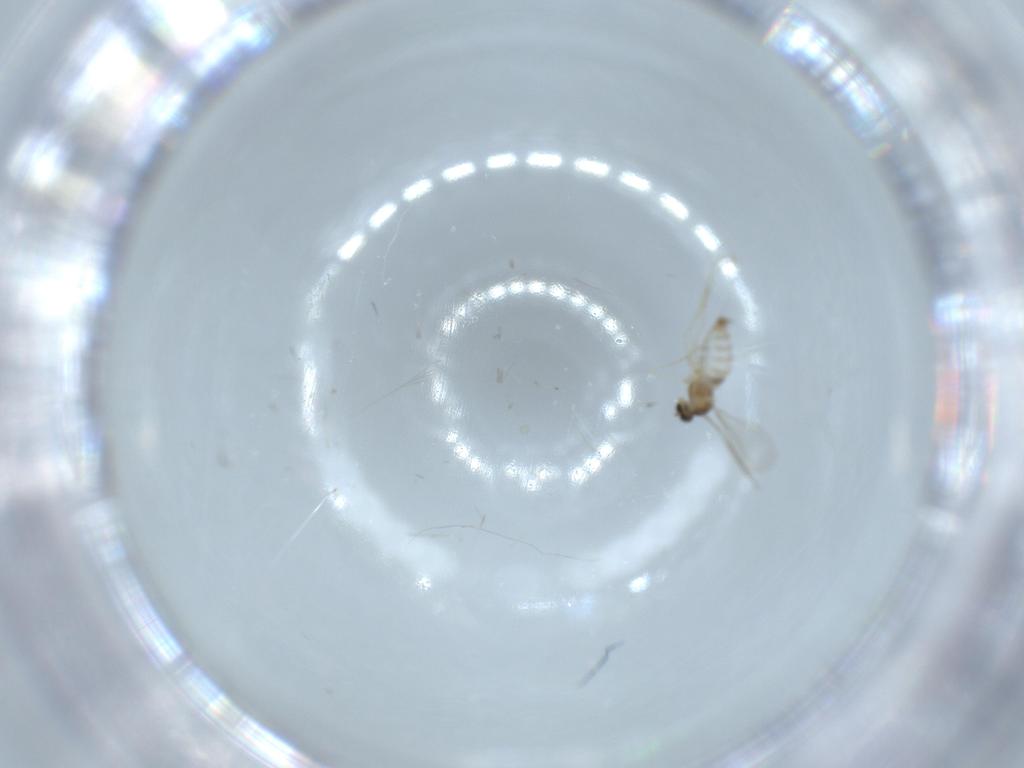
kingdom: Animalia
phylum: Arthropoda
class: Insecta
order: Diptera
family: Cecidomyiidae
